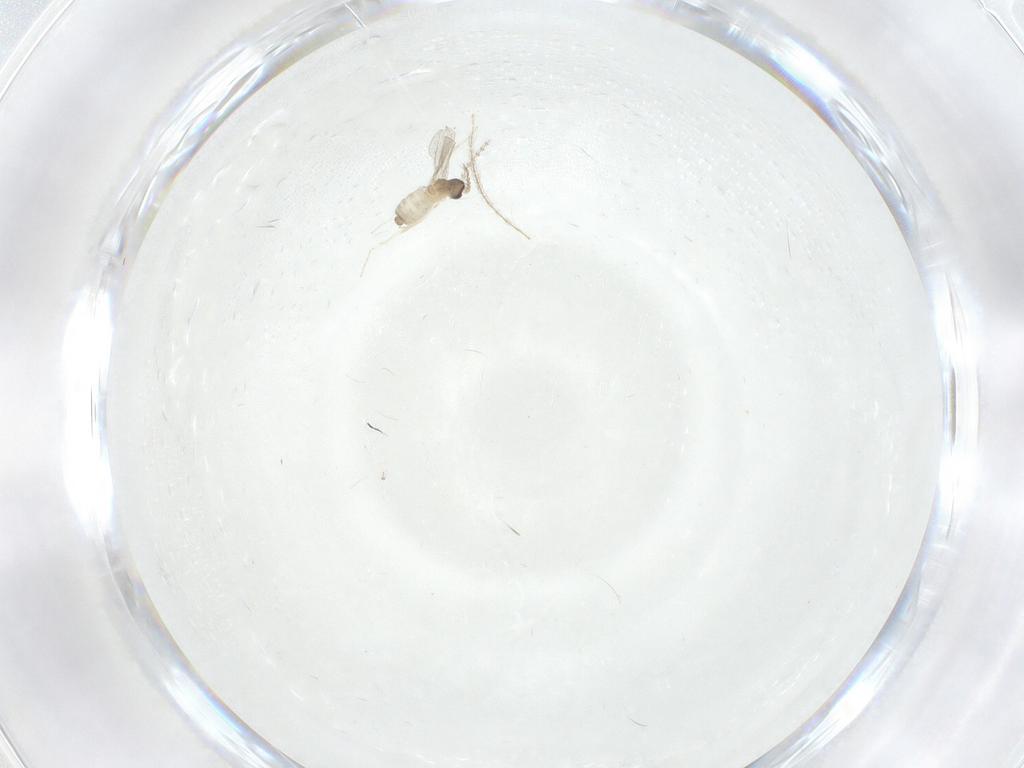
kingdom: Animalia
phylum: Arthropoda
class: Insecta
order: Diptera
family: Cecidomyiidae
